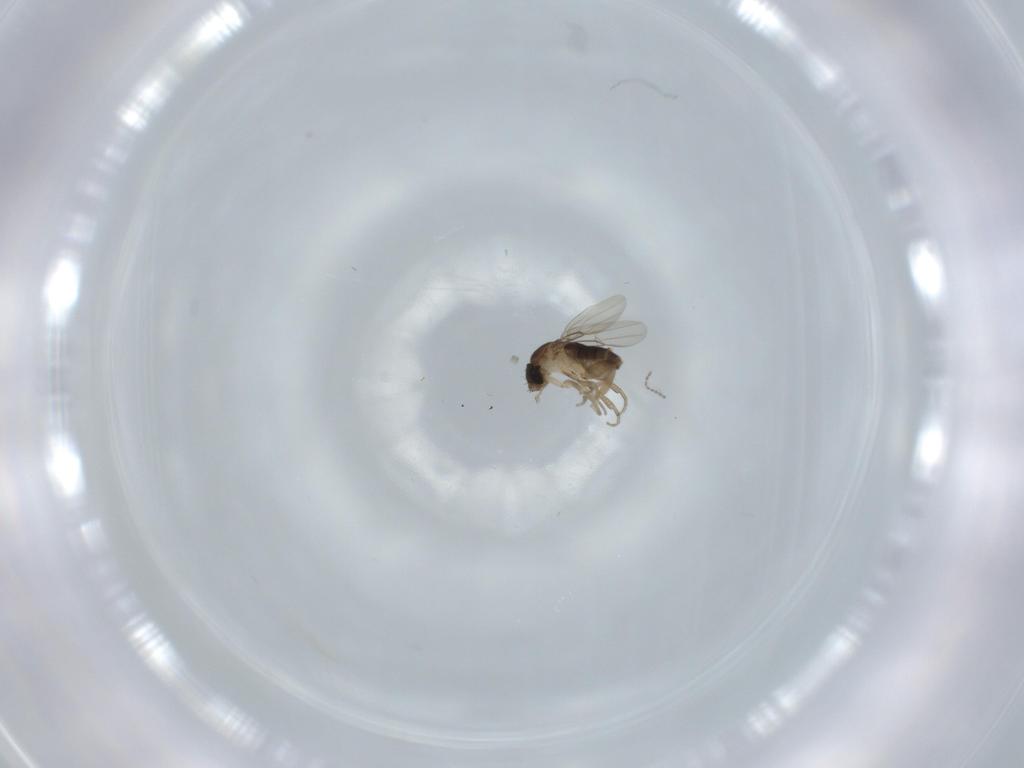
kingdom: Animalia
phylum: Arthropoda
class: Insecta
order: Diptera
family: Phoridae
